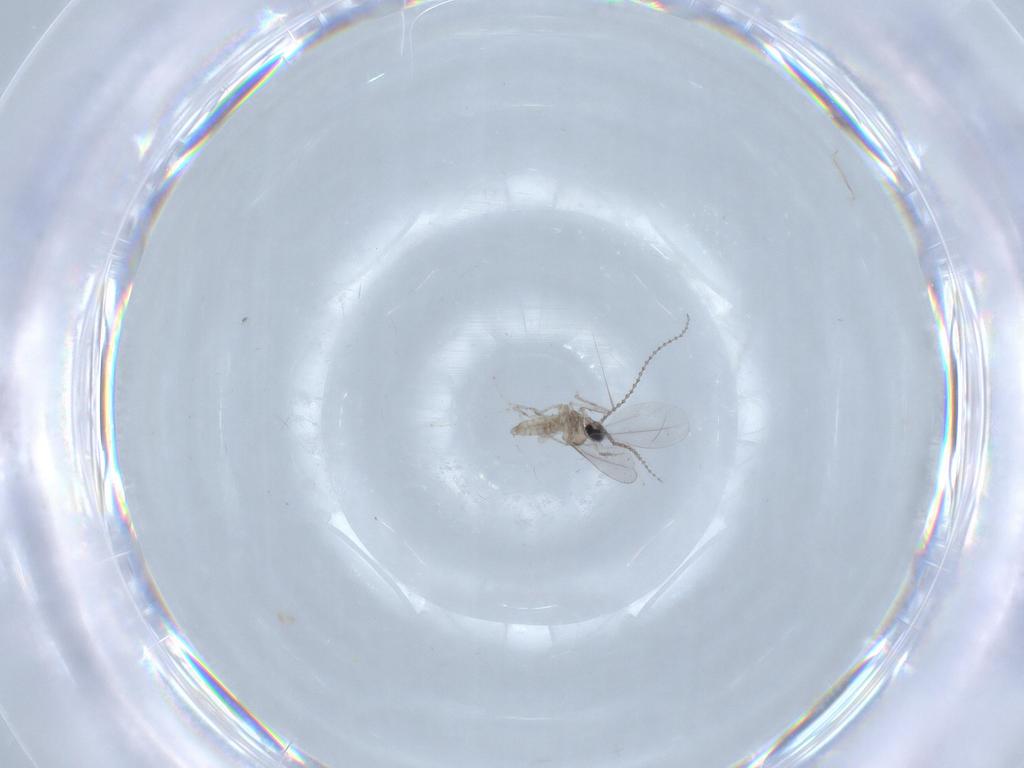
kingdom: Animalia
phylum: Arthropoda
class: Insecta
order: Diptera
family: Cecidomyiidae
